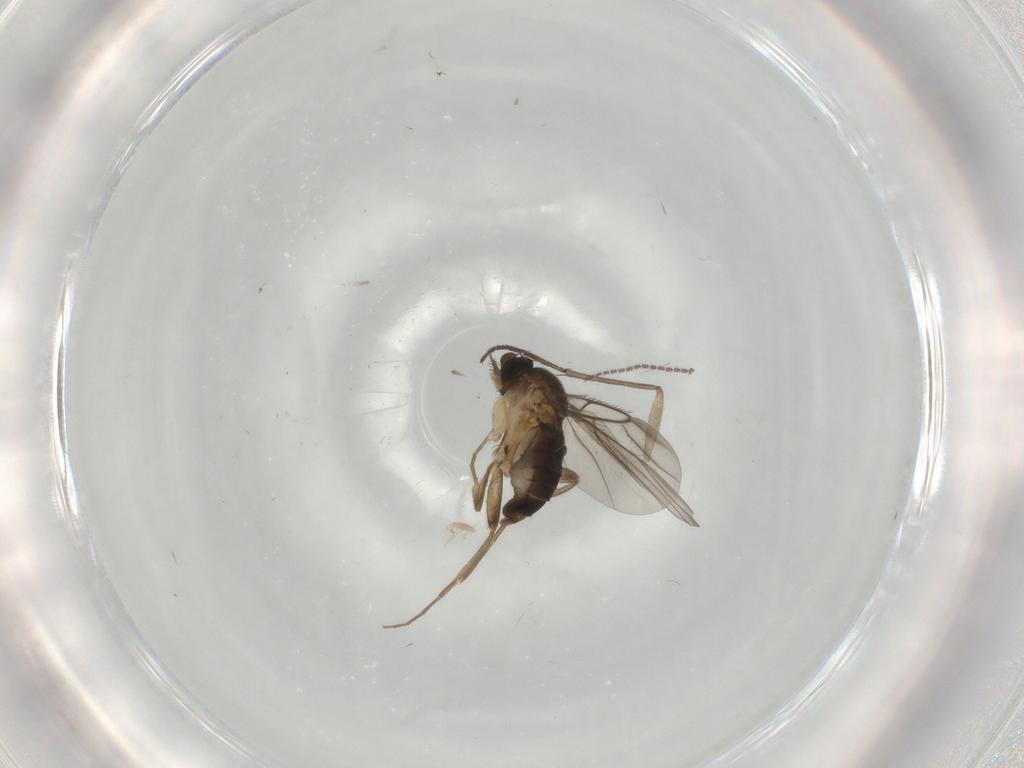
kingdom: Animalia
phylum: Arthropoda
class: Insecta
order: Diptera
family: Phoridae
